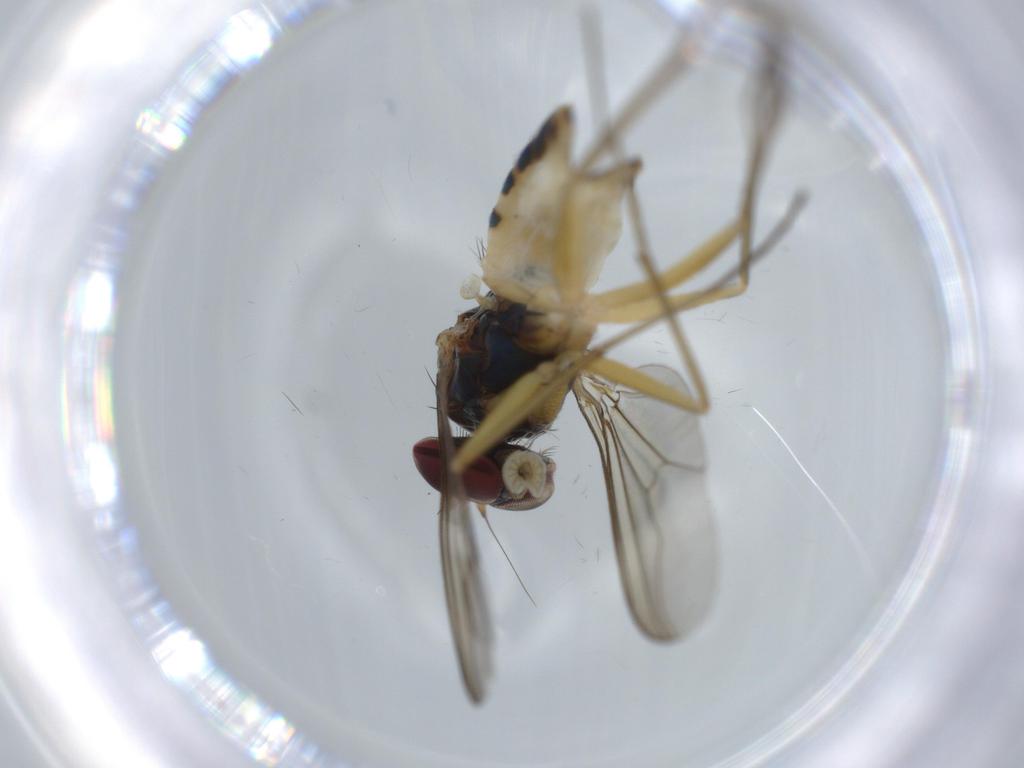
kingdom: Animalia
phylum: Arthropoda
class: Insecta
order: Diptera
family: Dolichopodidae
